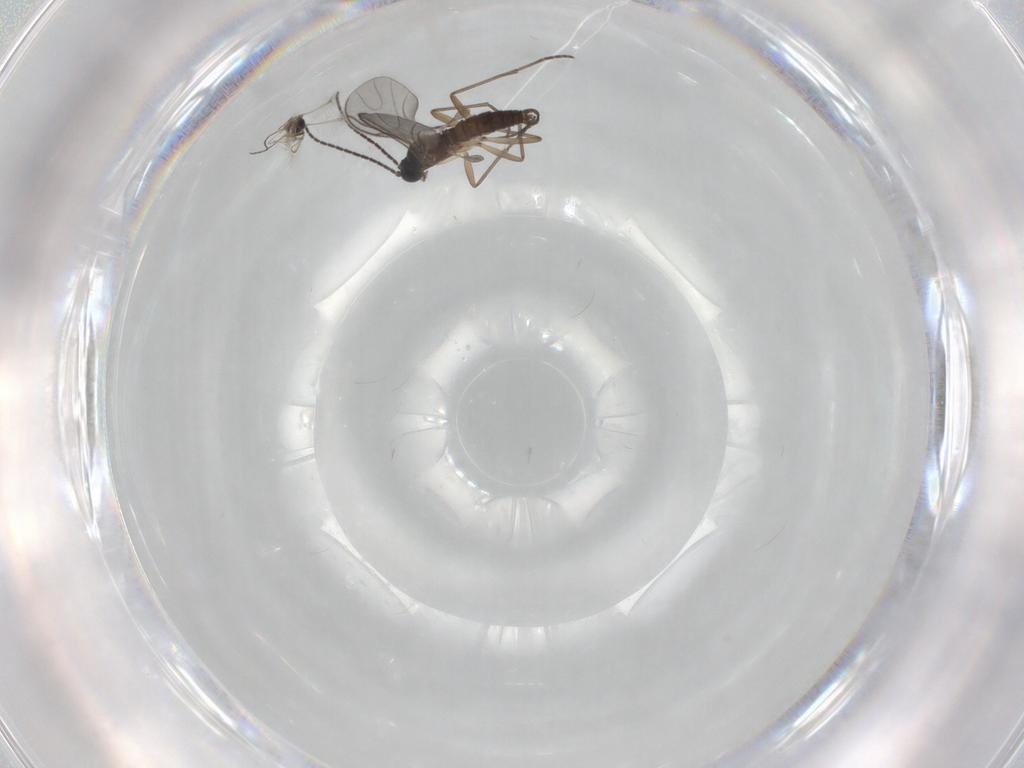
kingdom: Animalia
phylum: Arthropoda
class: Insecta
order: Diptera
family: Sciaridae
